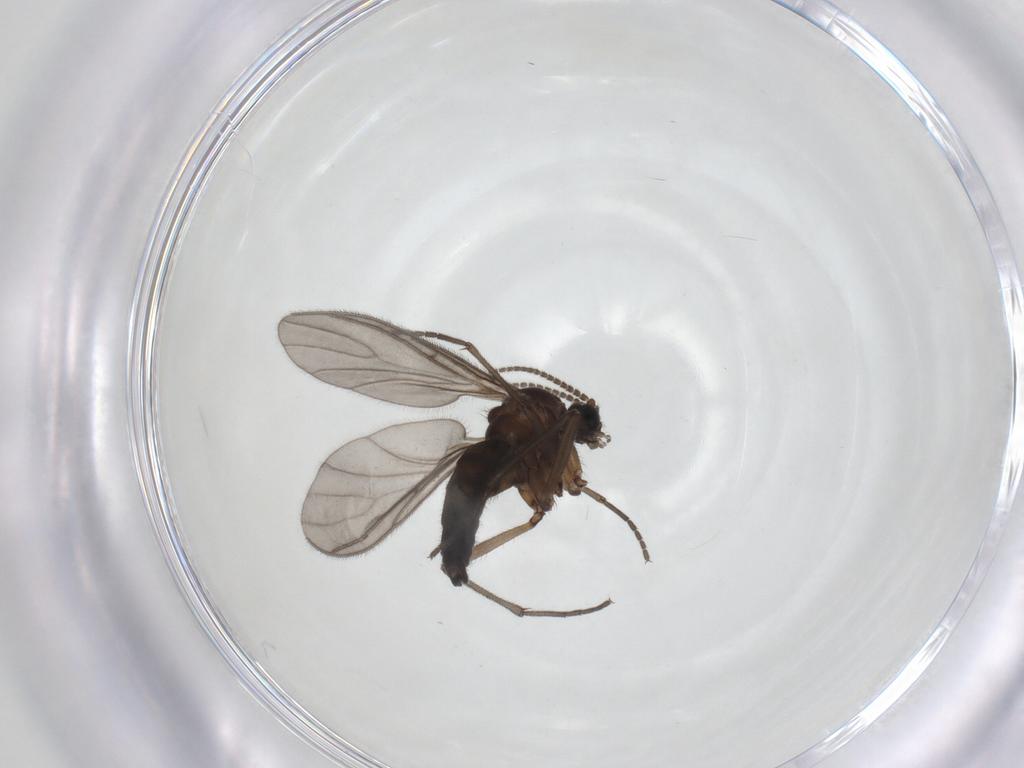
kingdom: Animalia
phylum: Arthropoda
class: Insecta
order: Diptera
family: Sciaridae
